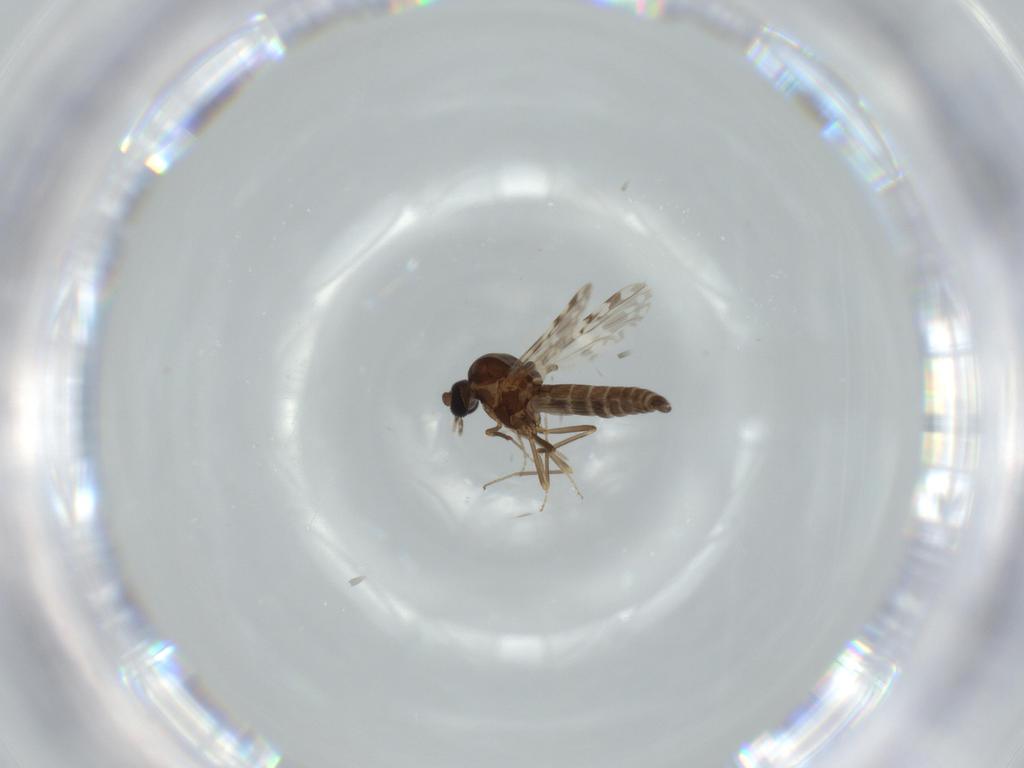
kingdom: Animalia
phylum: Arthropoda
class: Insecta
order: Diptera
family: Ceratopogonidae
